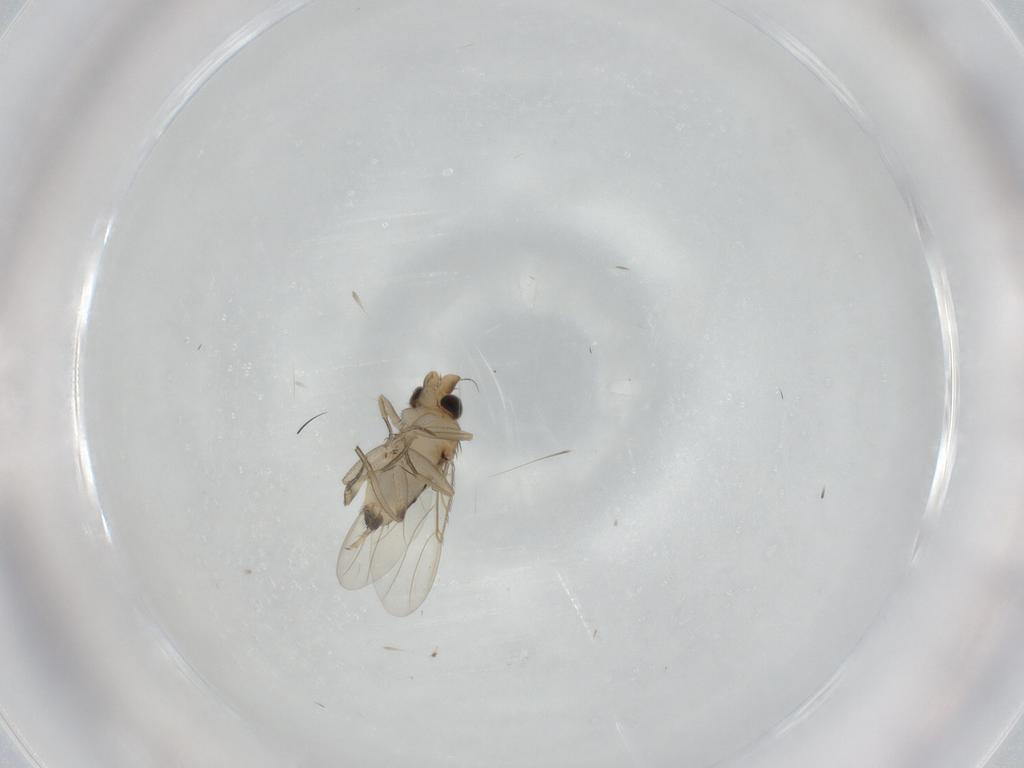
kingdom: Animalia
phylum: Arthropoda
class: Insecta
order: Diptera
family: Phoridae
